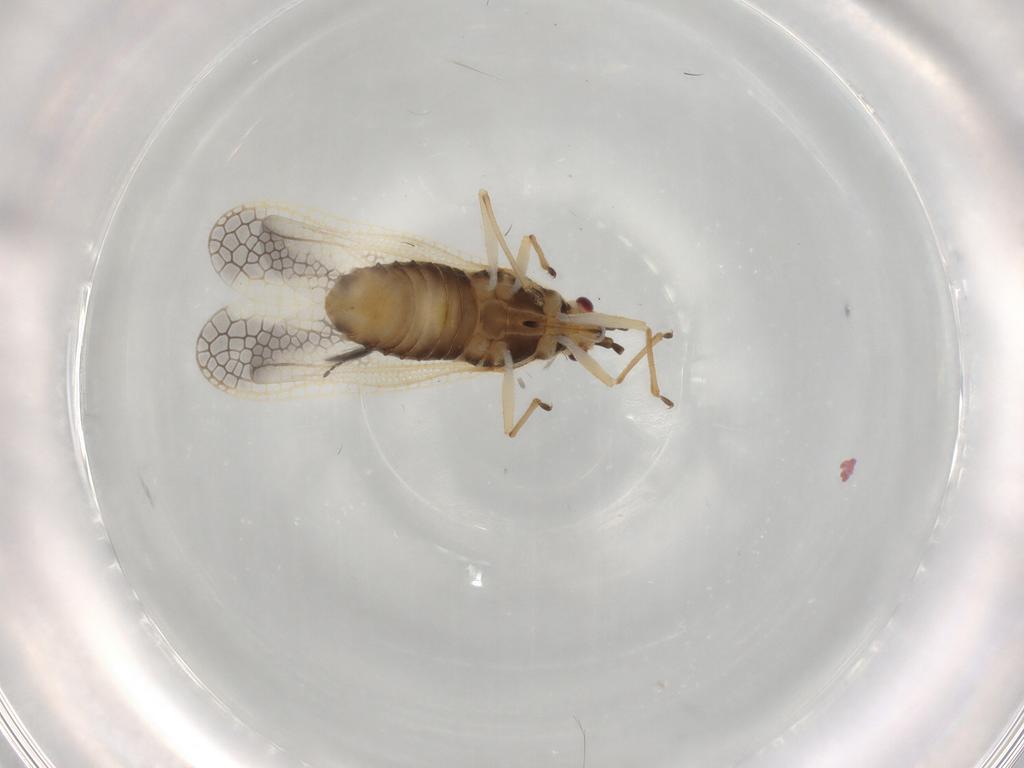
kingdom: Animalia
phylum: Arthropoda
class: Insecta
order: Hemiptera
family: Tingidae
